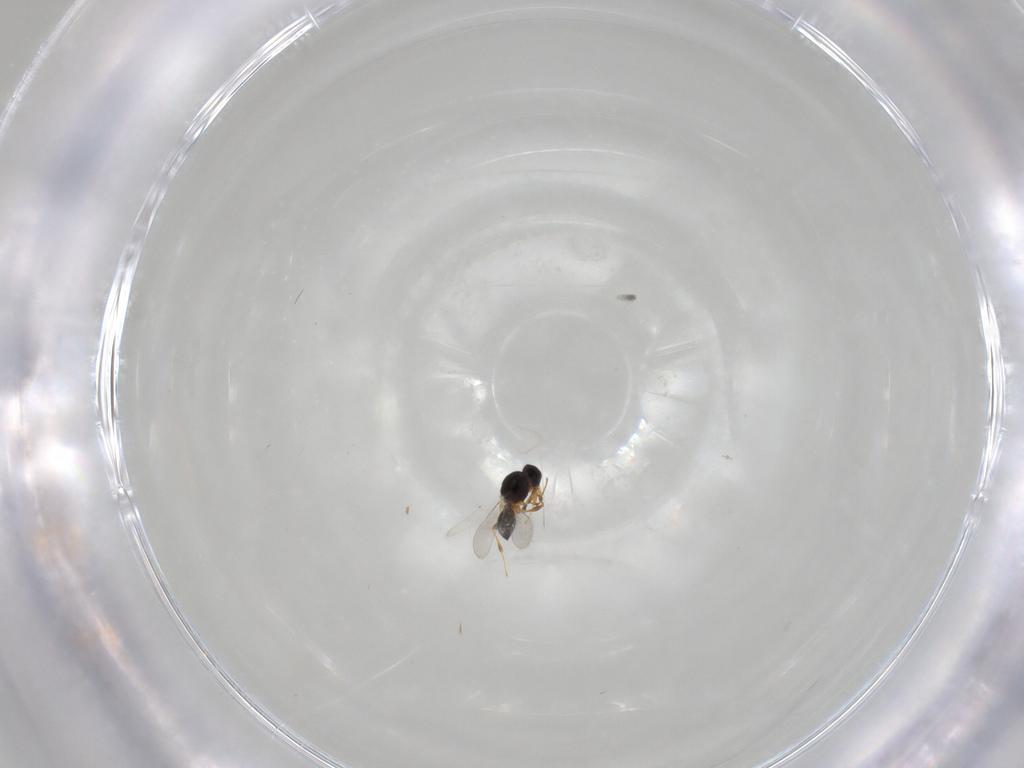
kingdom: Animalia
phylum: Arthropoda
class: Insecta
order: Hymenoptera
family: Platygastridae
